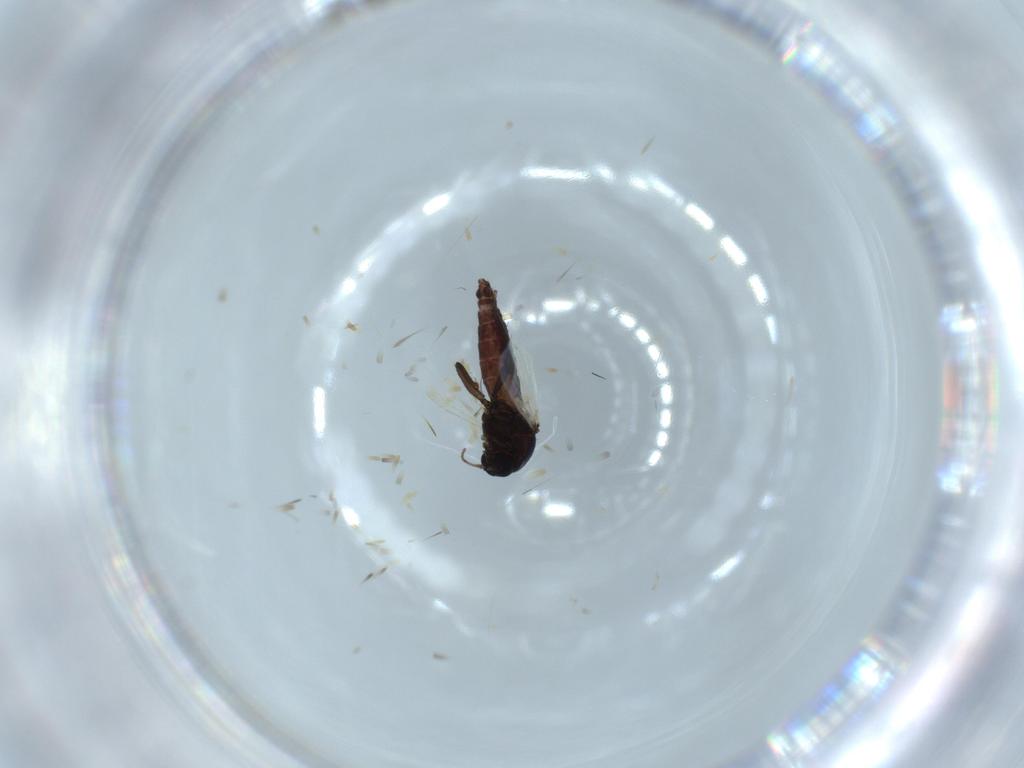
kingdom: Animalia
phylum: Arthropoda
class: Insecta
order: Diptera
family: Ceratopogonidae
